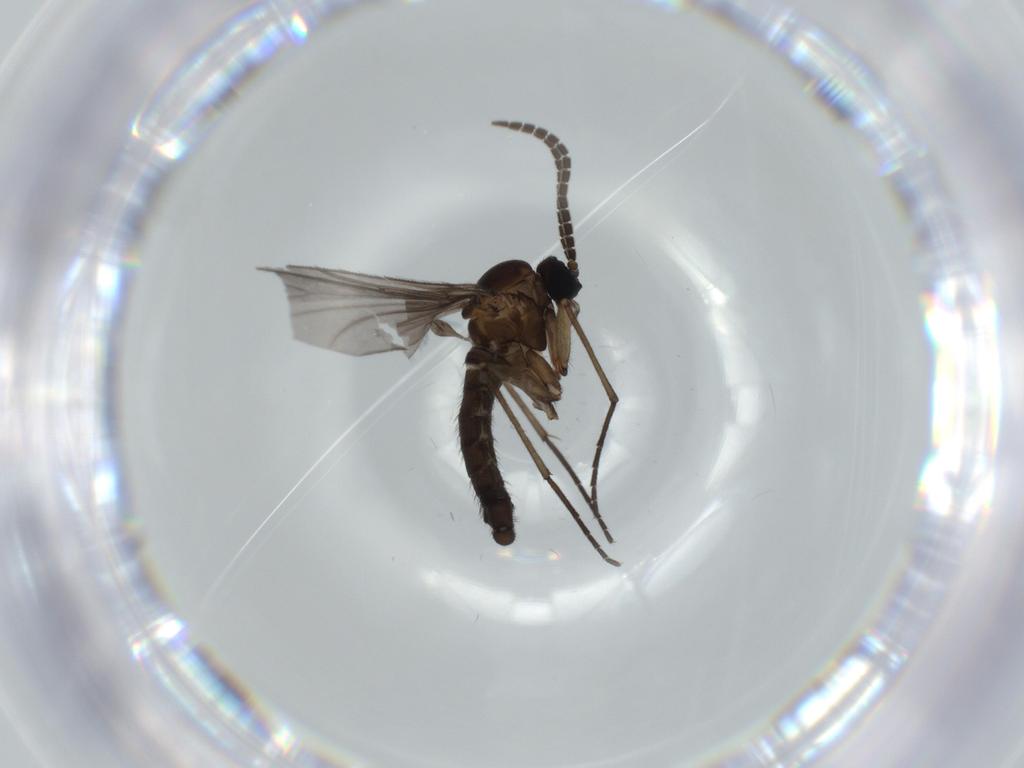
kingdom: Animalia
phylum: Arthropoda
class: Insecta
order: Diptera
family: Sciaridae
